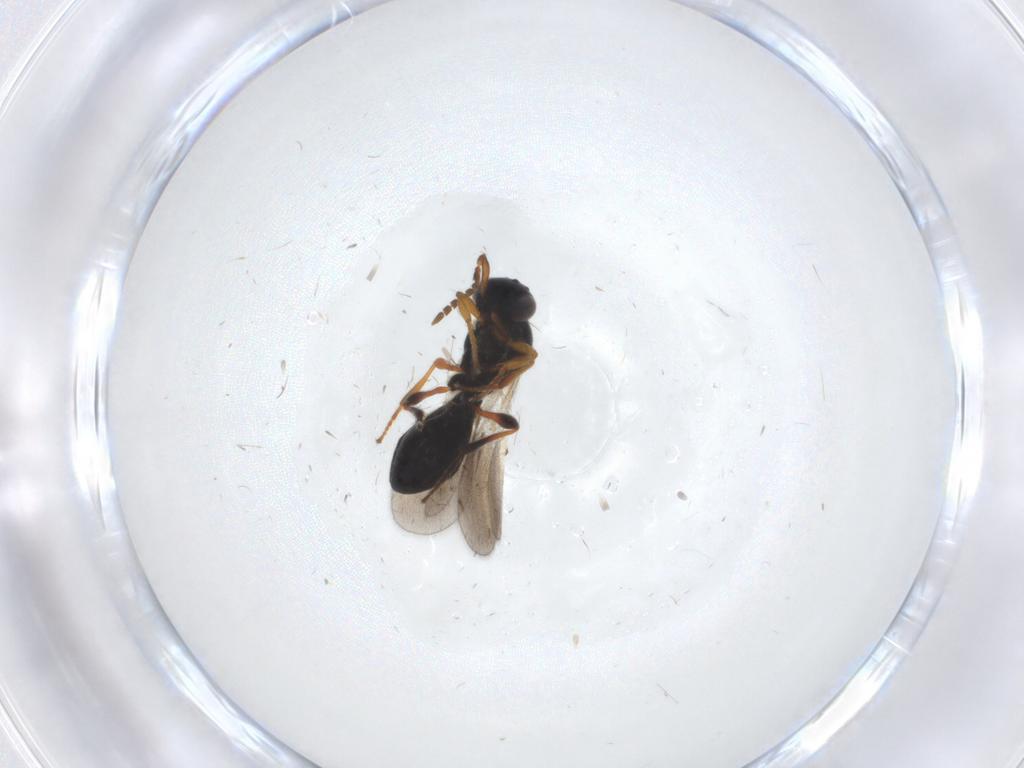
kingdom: Animalia
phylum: Arthropoda
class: Insecta
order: Hymenoptera
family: Platygastridae
